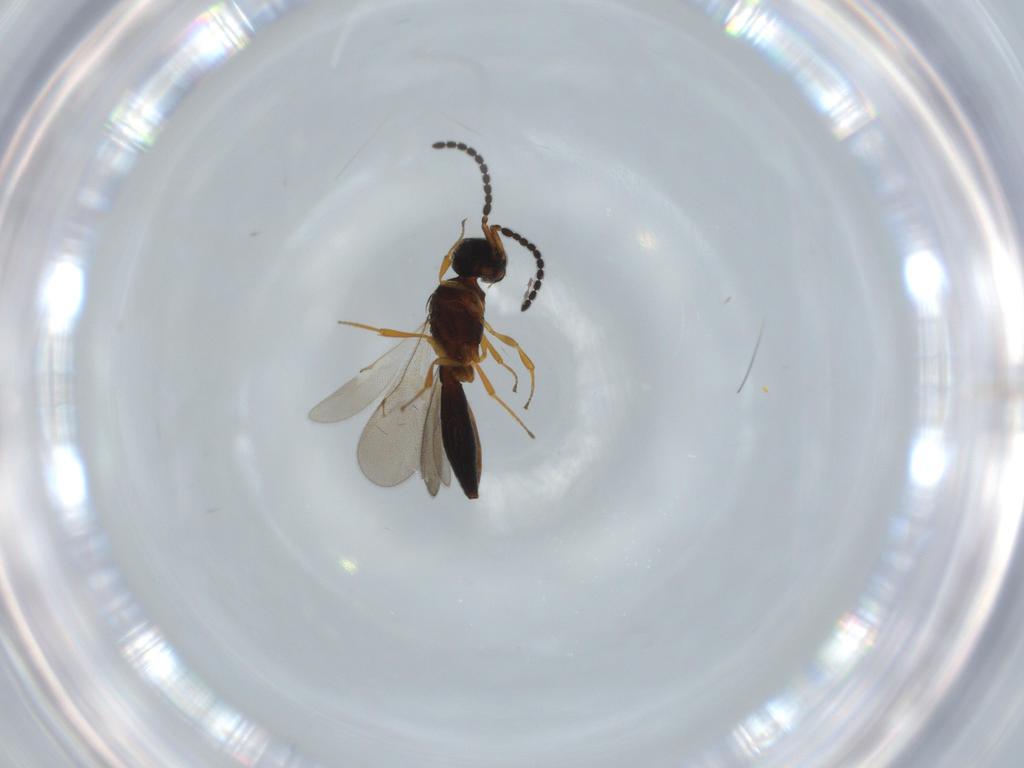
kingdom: Animalia
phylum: Arthropoda
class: Insecta
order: Hymenoptera
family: Scelionidae
